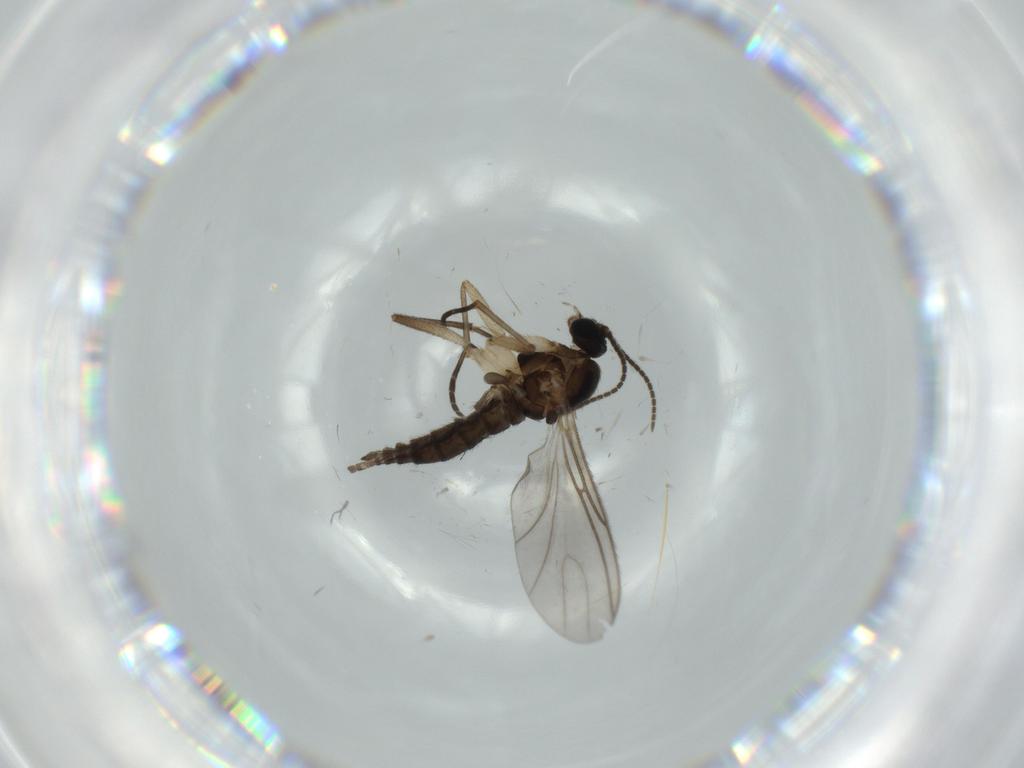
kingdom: Animalia
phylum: Arthropoda
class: Insecta
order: Diptera
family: Sciaridae
